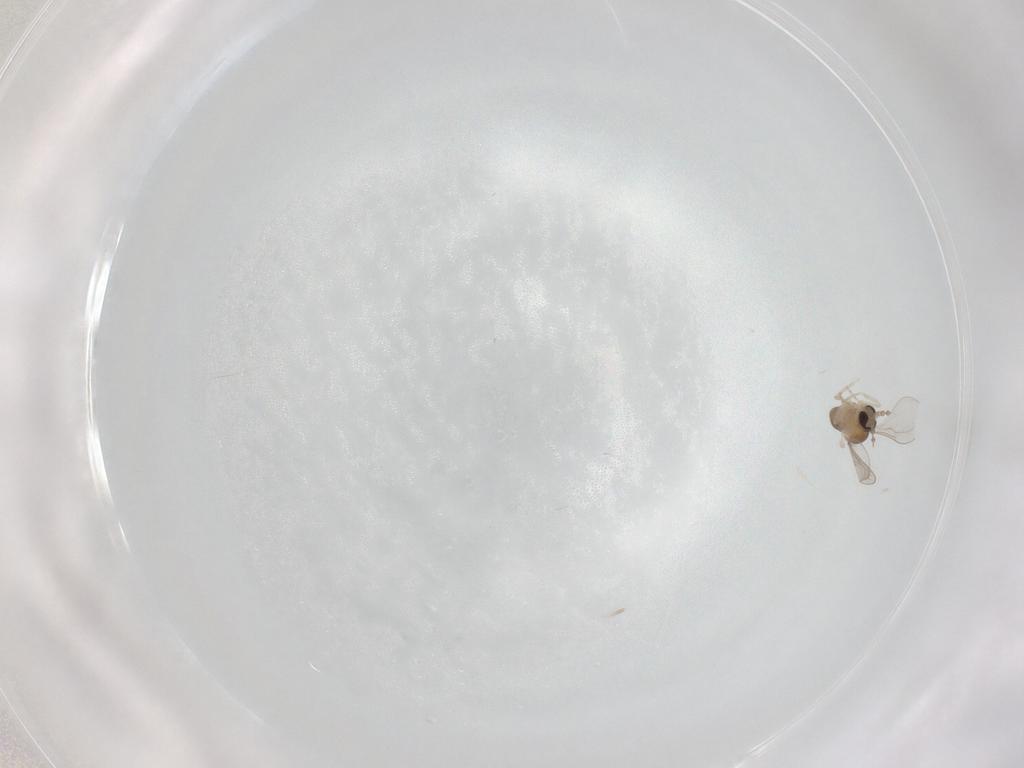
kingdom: Animalia
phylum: Arthropoda
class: Insecta
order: Diptera
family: Cecidomyiidae
